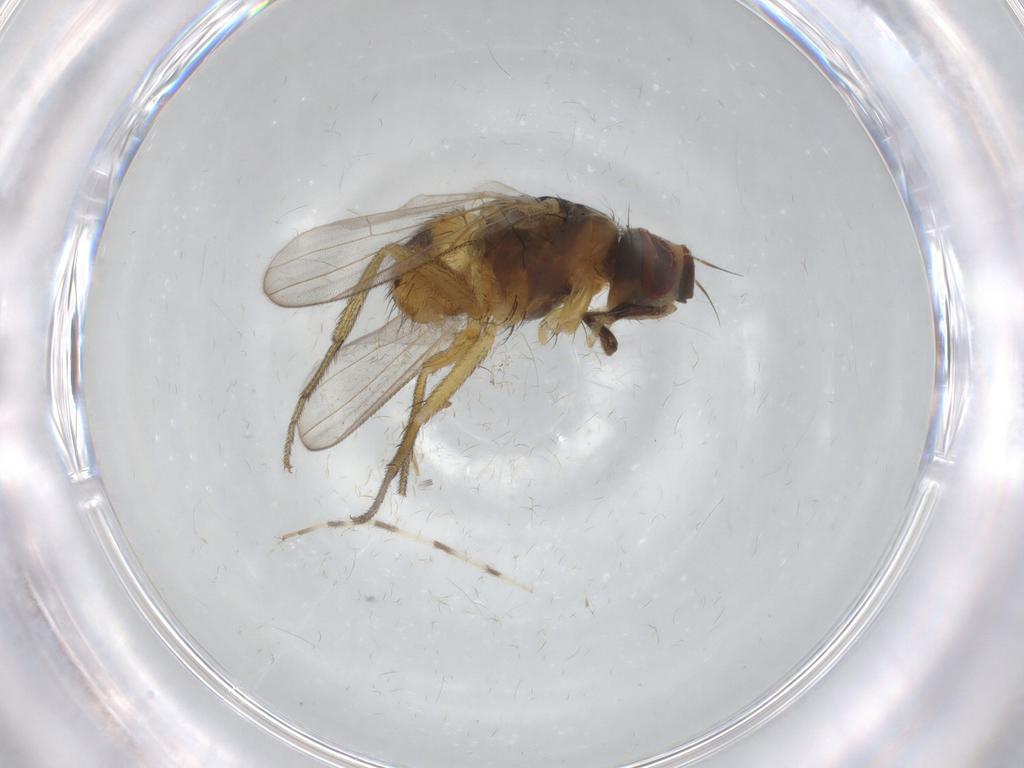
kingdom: Animalia
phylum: Arthropoda
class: Insecta
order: Diptera
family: Muscidae
